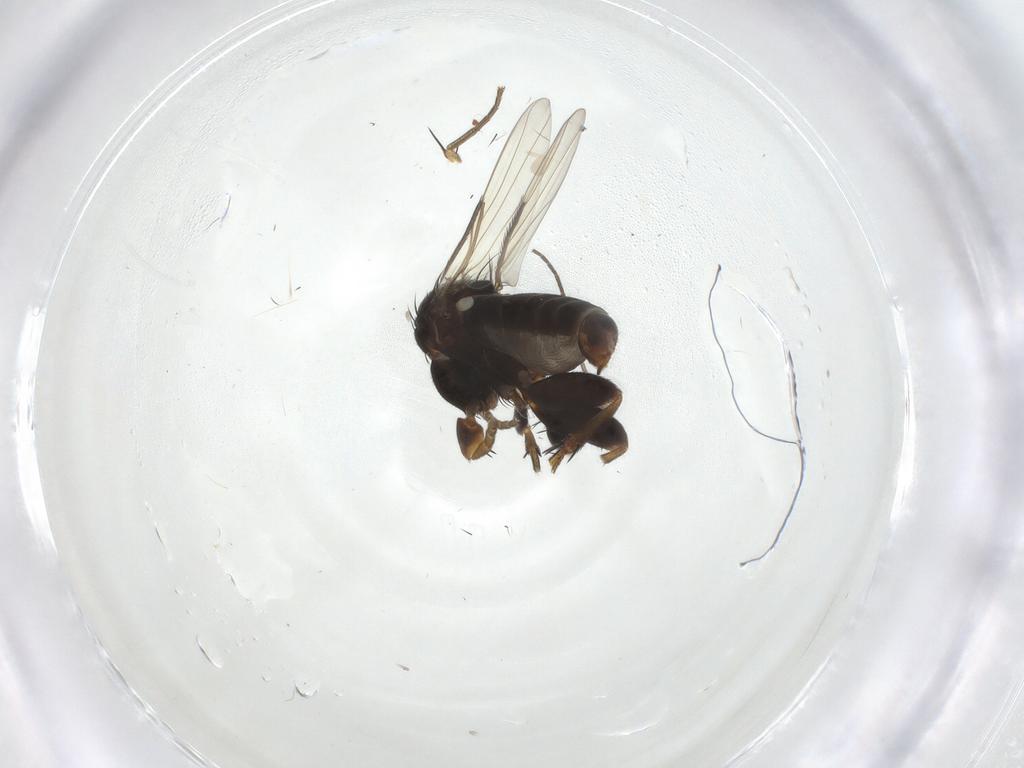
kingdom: Animalia
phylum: Arthropoda
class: Insecta
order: Diptera
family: Phoridae
